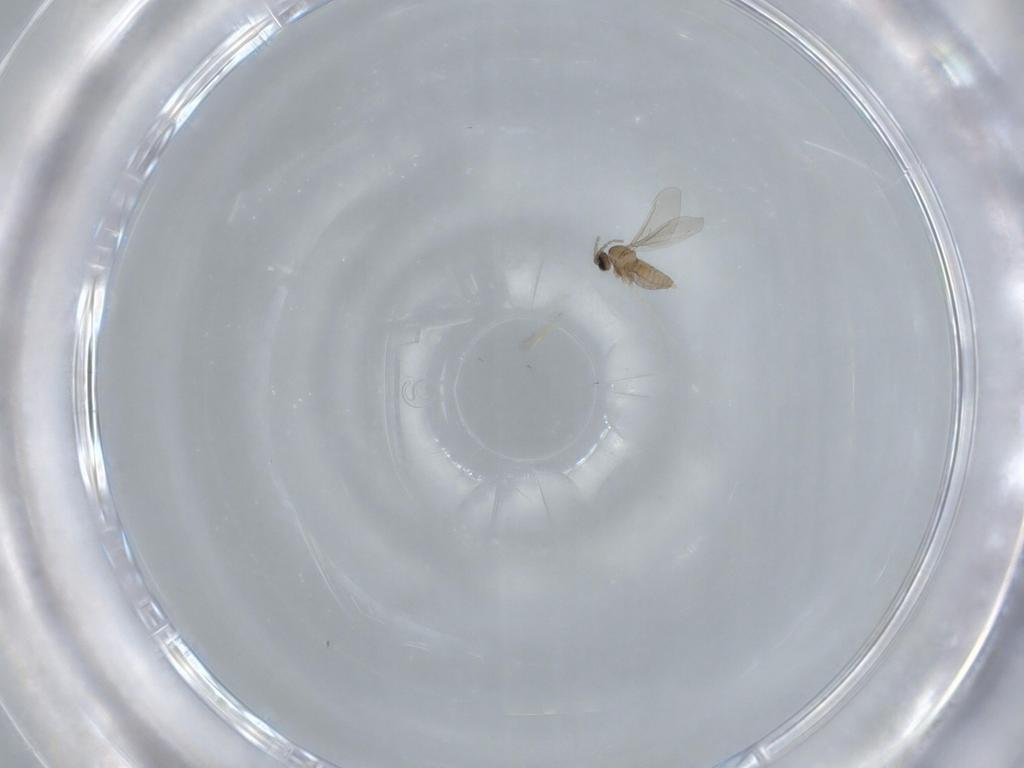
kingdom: Animalia
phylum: Arthropoda
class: Insecta
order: Diptera
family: Cecidomyiidae
